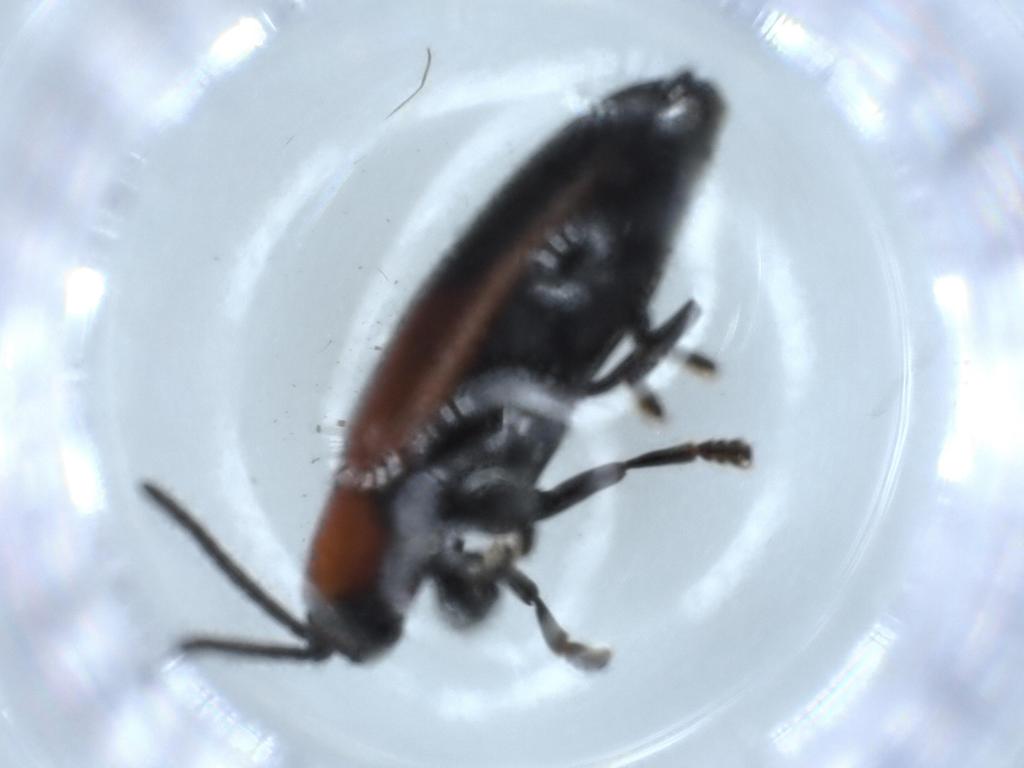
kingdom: Animalia
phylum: Arthropoda
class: Insecta
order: Coleoptera
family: Chrysomelidae
